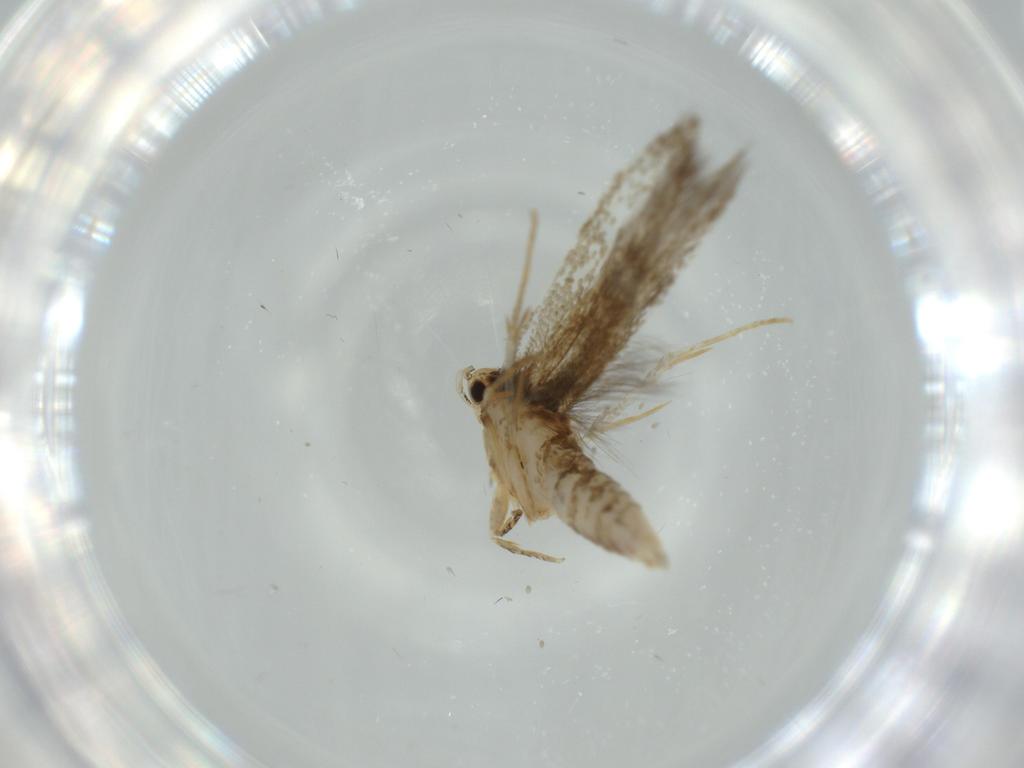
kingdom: Animalia
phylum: Arthropoda
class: Insecta
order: Lepidoptera
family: Tineidae
